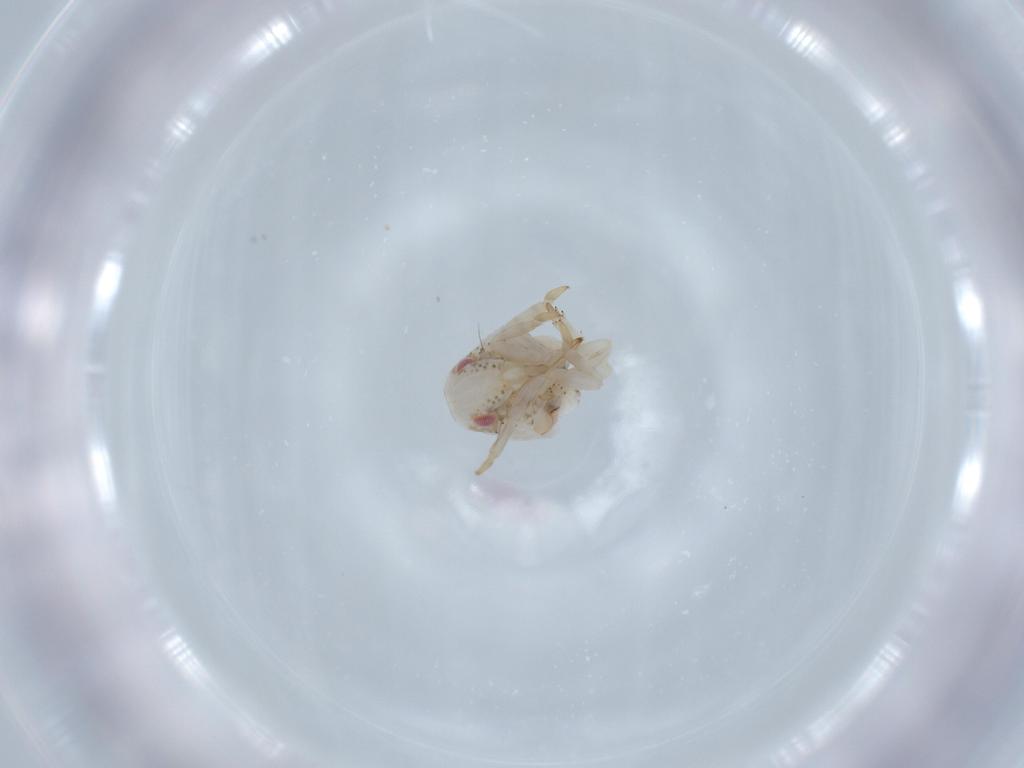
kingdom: Animalia
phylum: Arthropoda
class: Insecta
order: Hemiptera
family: Acanaloniidae
